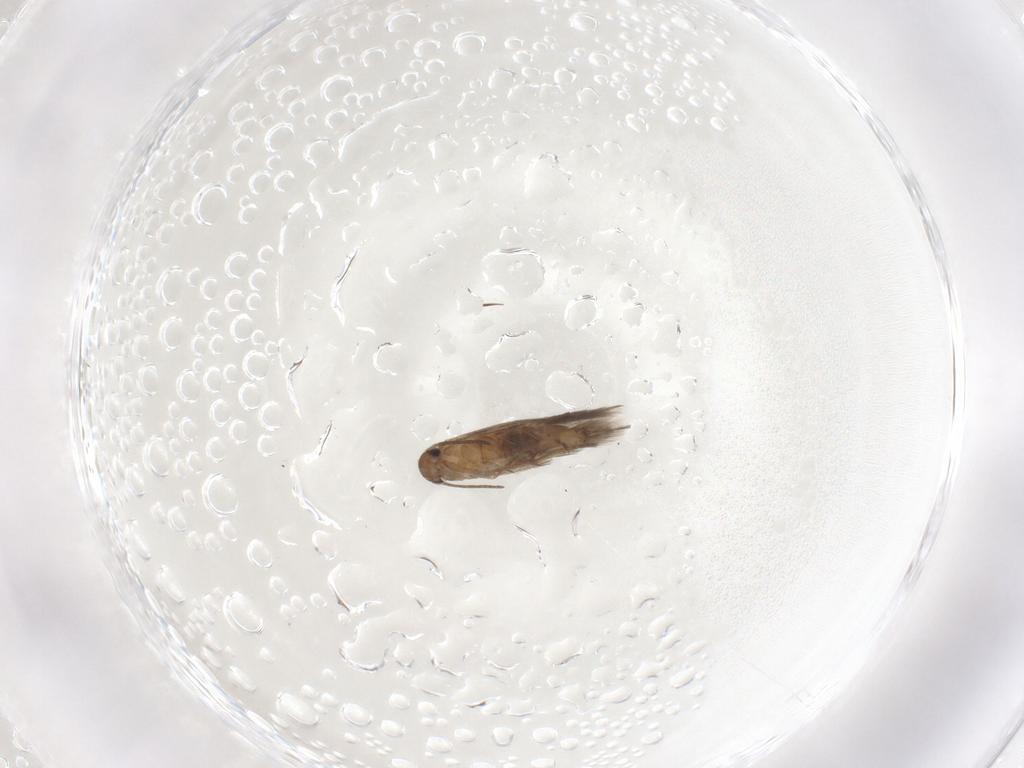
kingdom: Animalia
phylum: Arthropoda
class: Insecta
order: Lepidoptera
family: Heliozelidae
